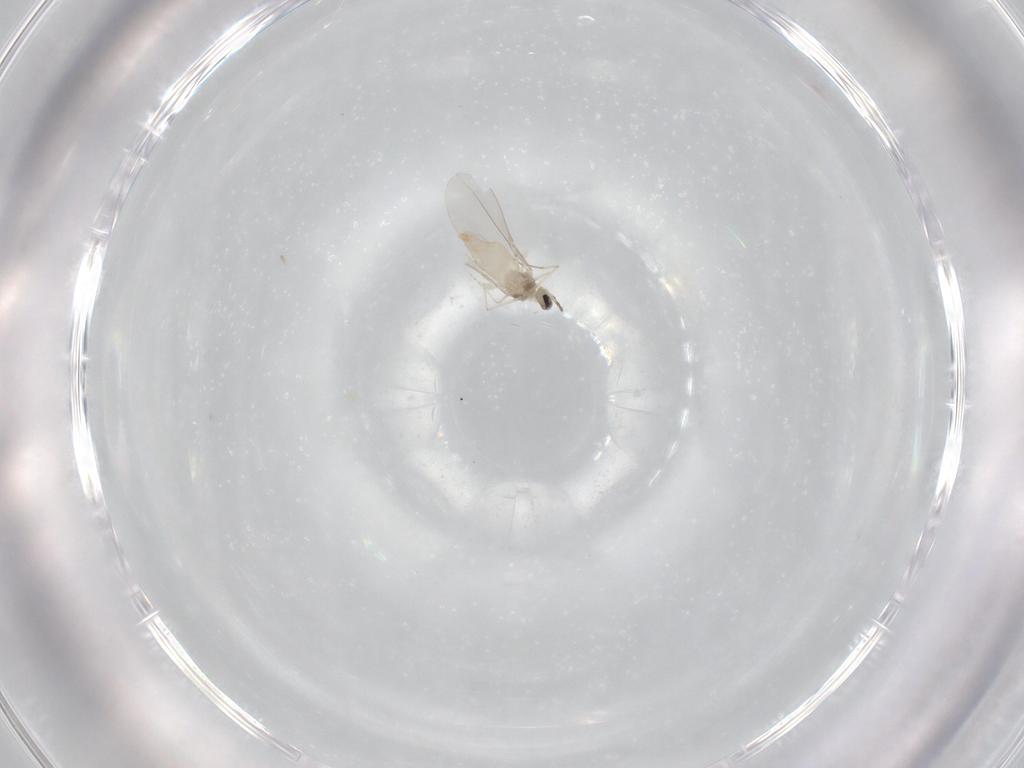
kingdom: Animalia
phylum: Arthropoda
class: Insecta
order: Diptera
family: Cecidomyiidae
